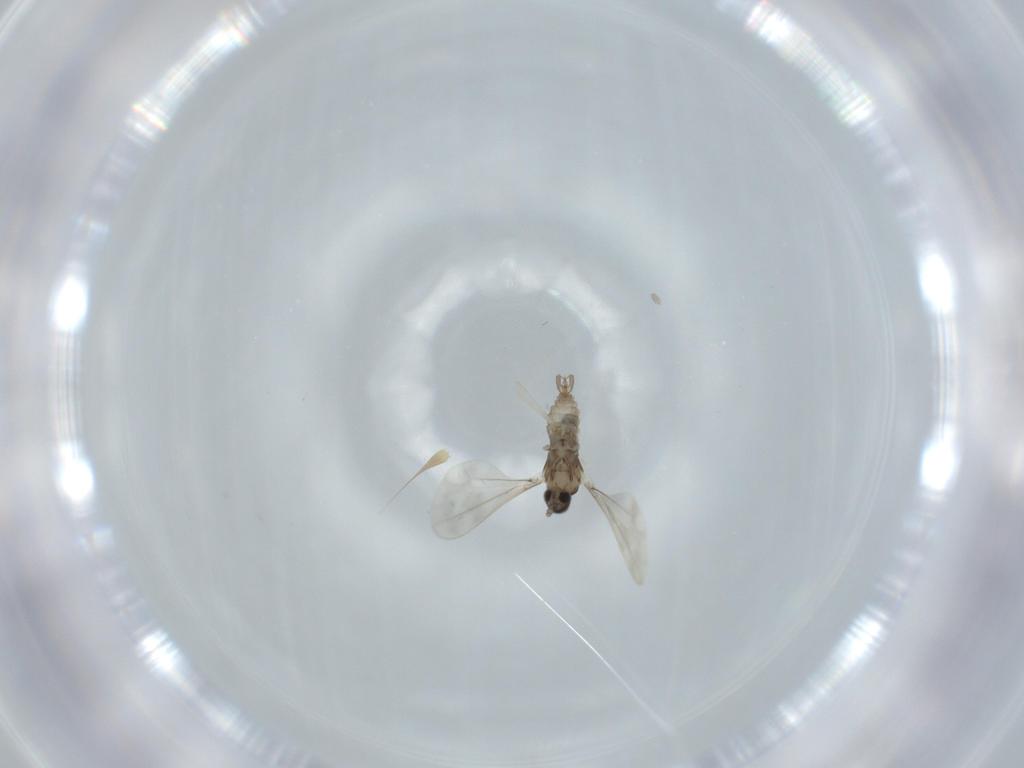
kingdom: Animalia
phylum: Arthropoda
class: Insecta
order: Diptera
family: Cecidomyiidae
